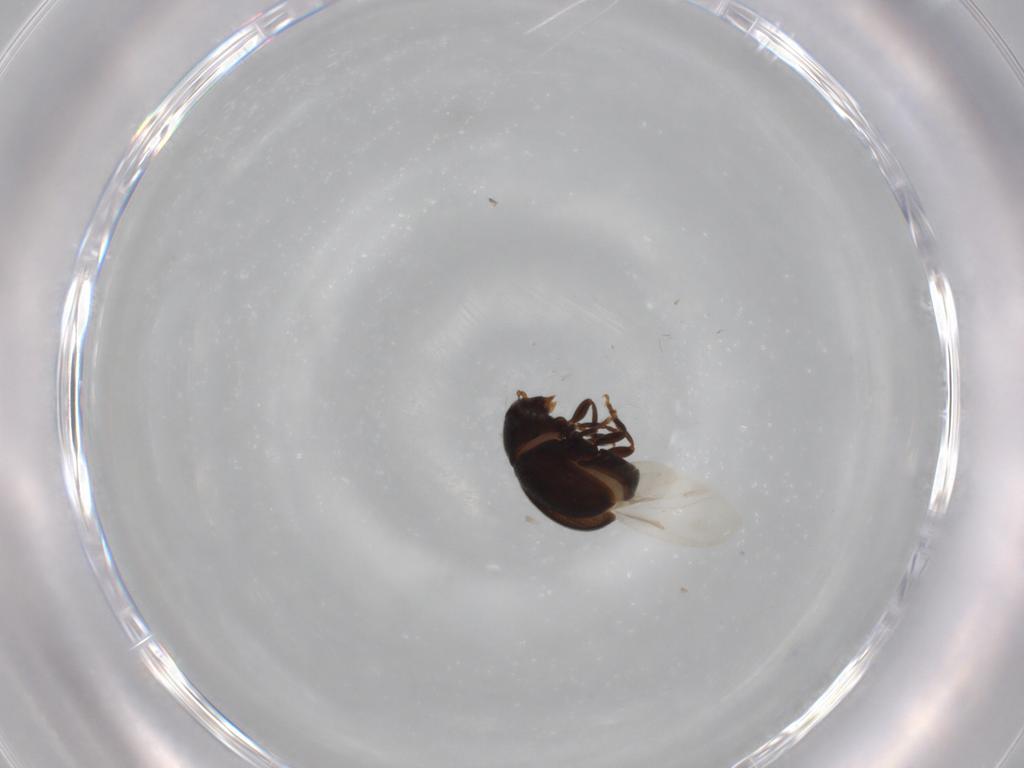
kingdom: Animalia
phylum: Arthropoda
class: Insecta
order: Coleoptera
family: Anthribidae
